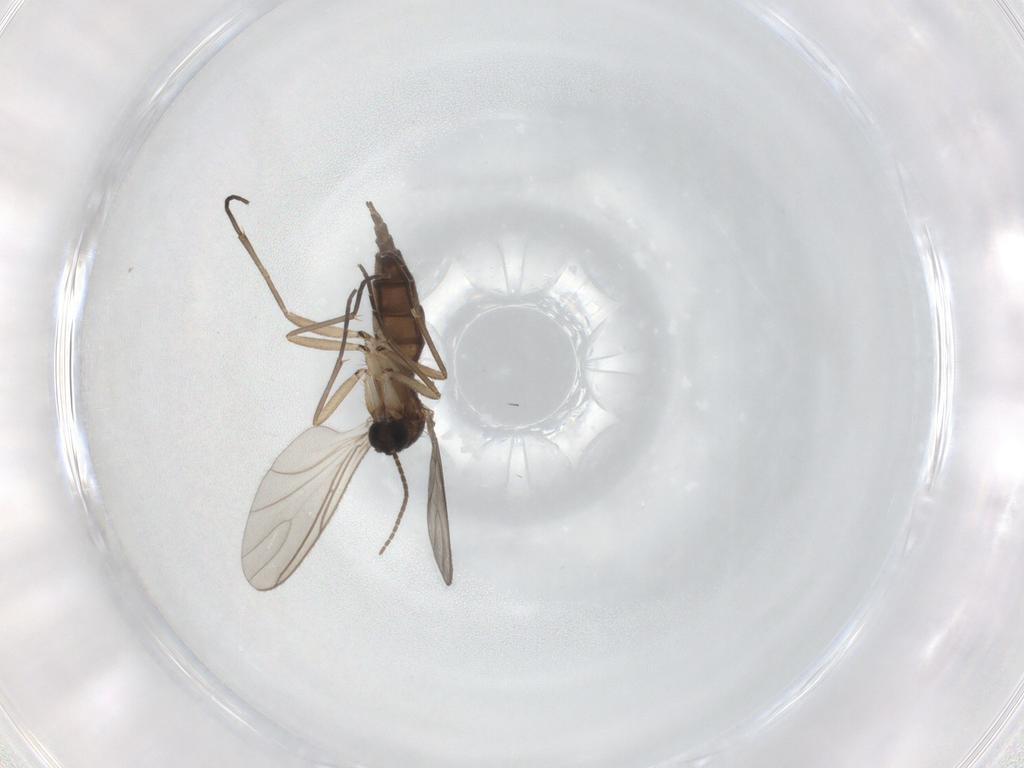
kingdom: Animalia
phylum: Arthropoda
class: Insecta
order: Diptera
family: Sciaridae
